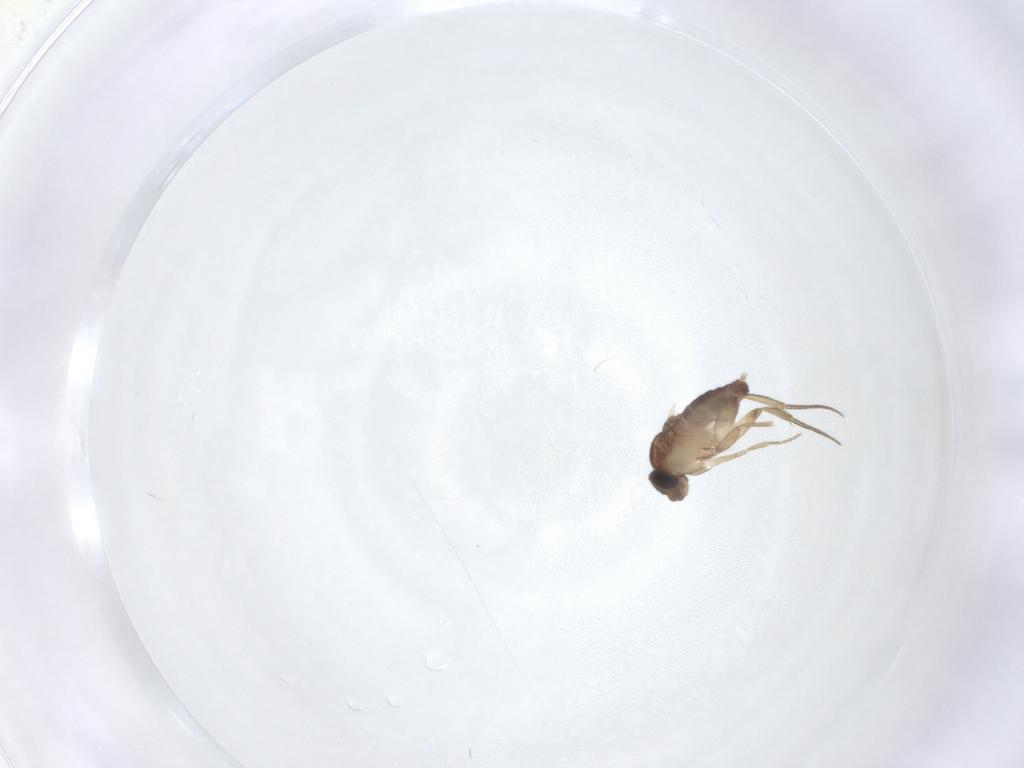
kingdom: Animalia
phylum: Arthropoda
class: Insecta
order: Diptera
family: Phoridae
